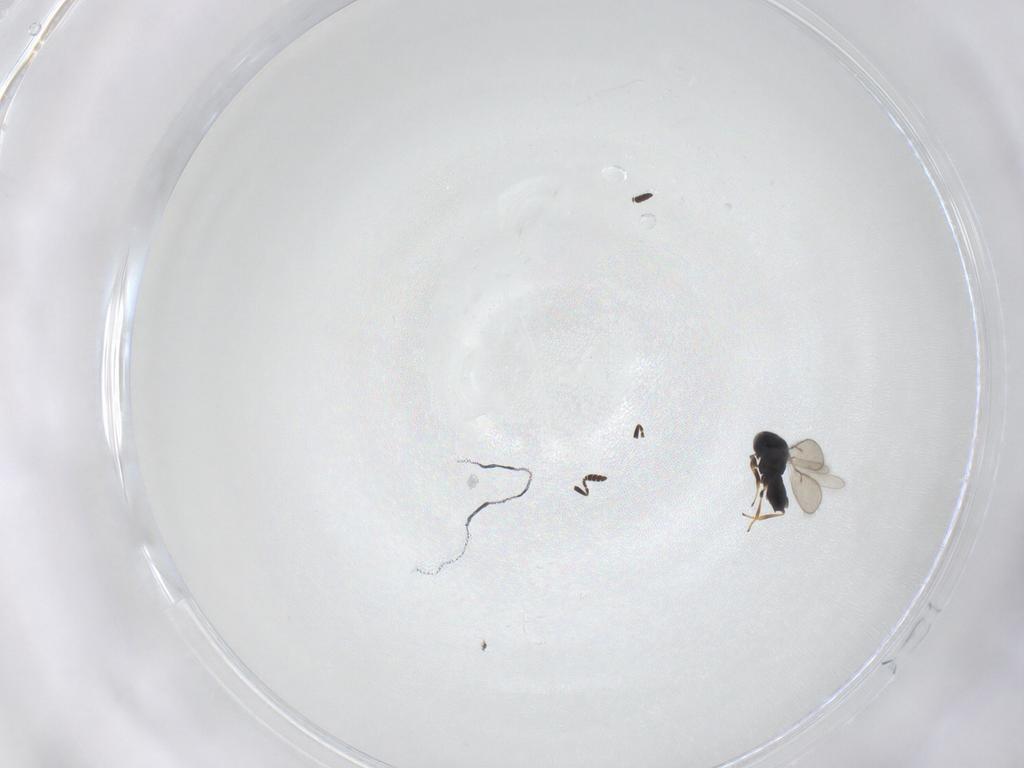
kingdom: Animalia
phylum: Arthropoda
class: Insecta
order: Hymenoptera
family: Scelionidae
